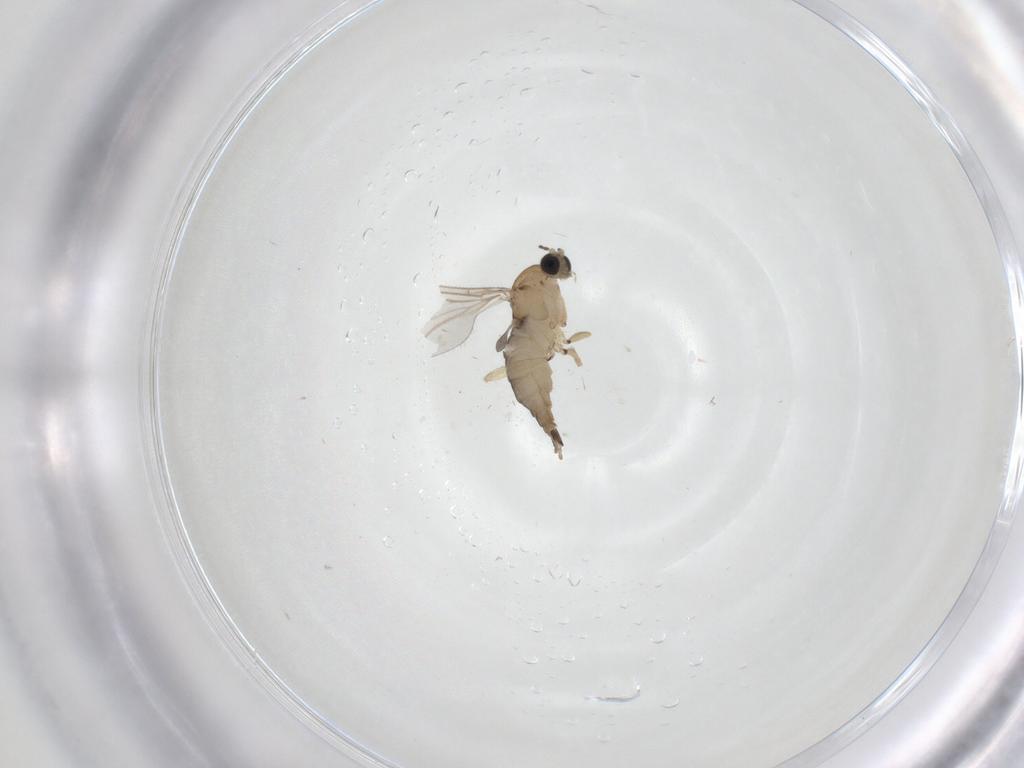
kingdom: Animalia
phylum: Arthropoda
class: Insecta
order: Diptera
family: Sciaridae
